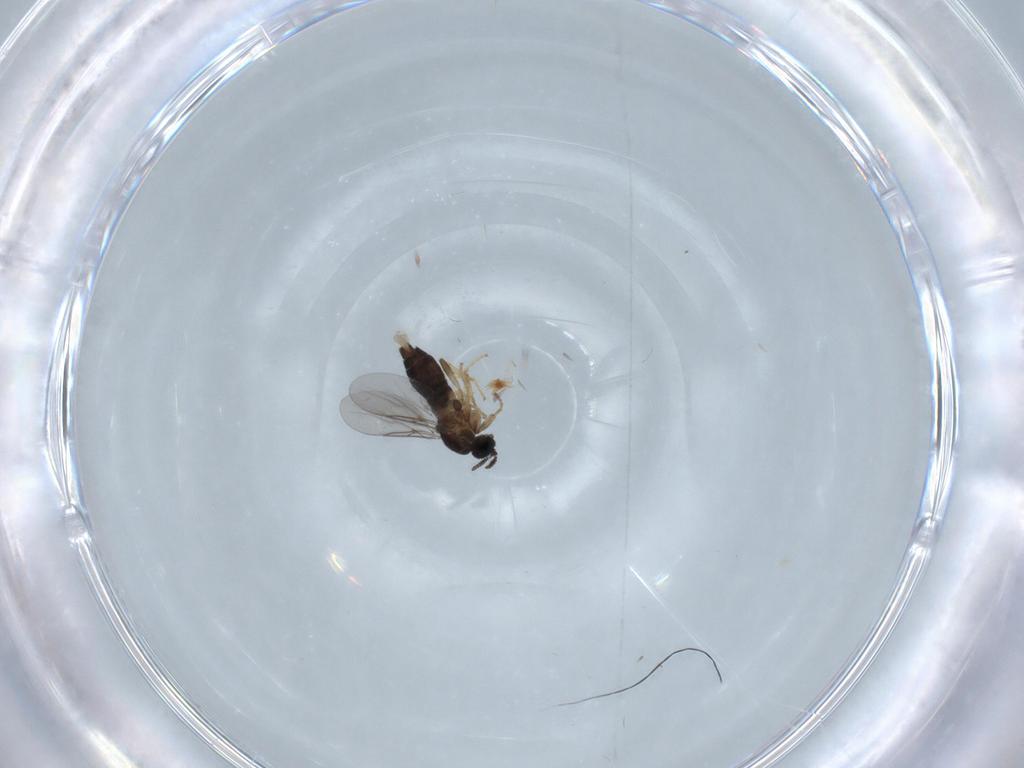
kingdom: Animalia
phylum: Arthropoda
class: Insecta
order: Diptera
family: Scatopsidae
